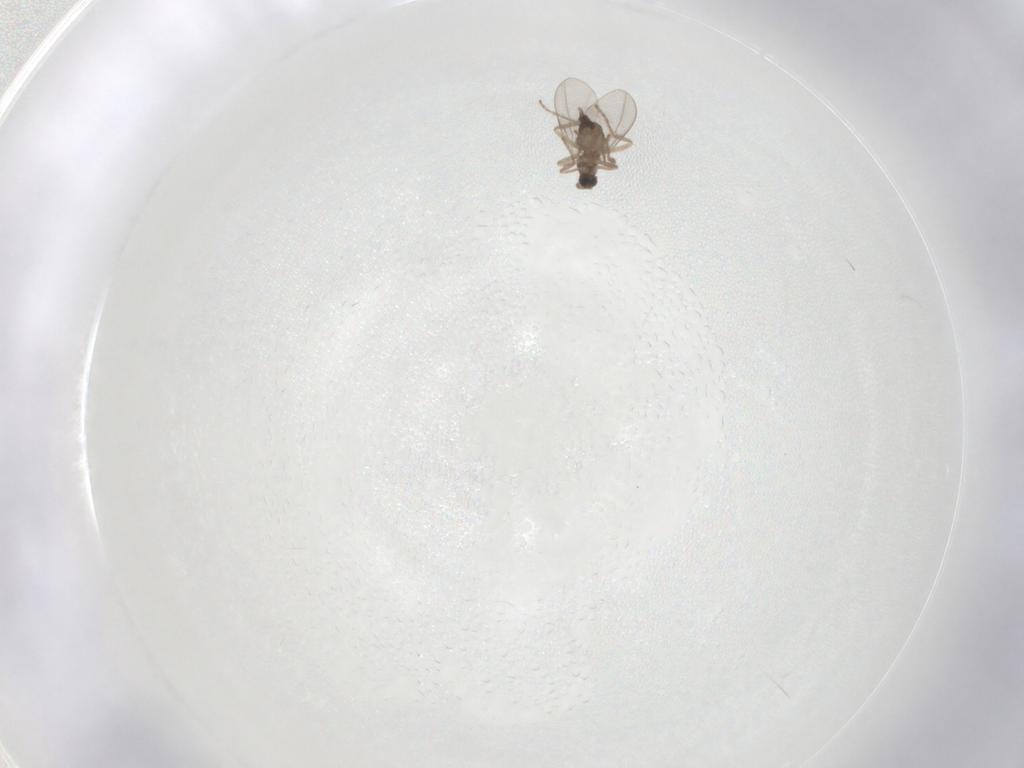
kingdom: Animalia
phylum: Arthropoda
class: Insecta
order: Diptera
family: Cecidomyiidae
